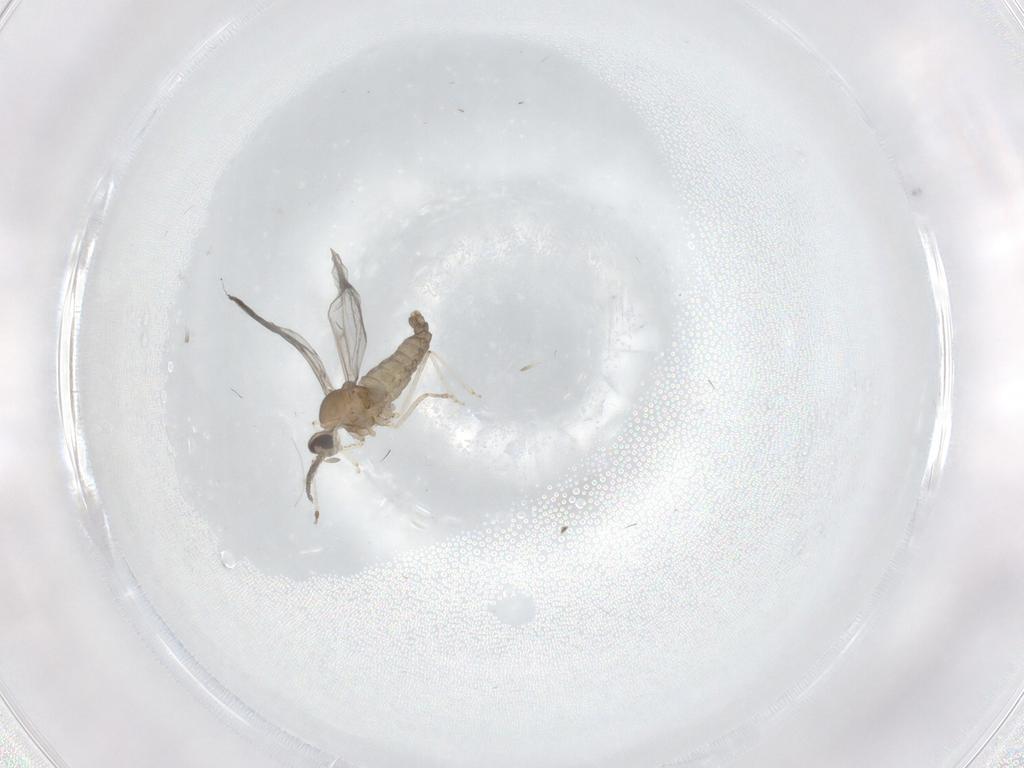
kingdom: Animalia
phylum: Arthropoda
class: Insecta
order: Diptera
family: Cecidomyiidae
